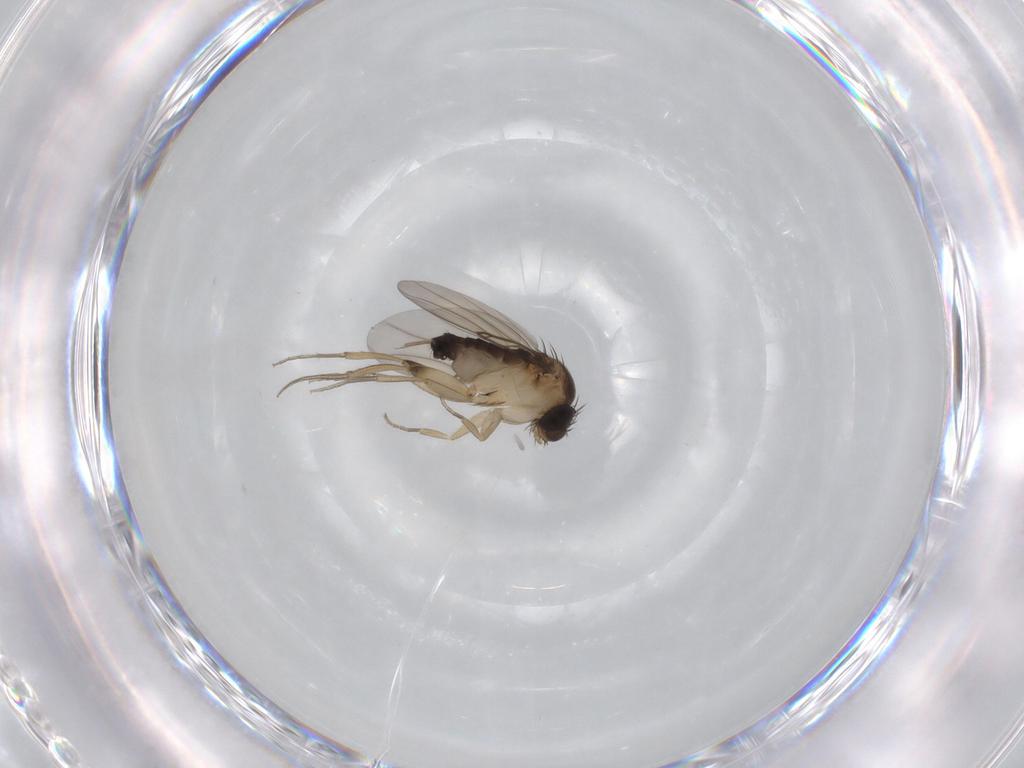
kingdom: Animalia
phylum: Arthropoda
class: Insecta
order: Diptera
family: Phoridae
